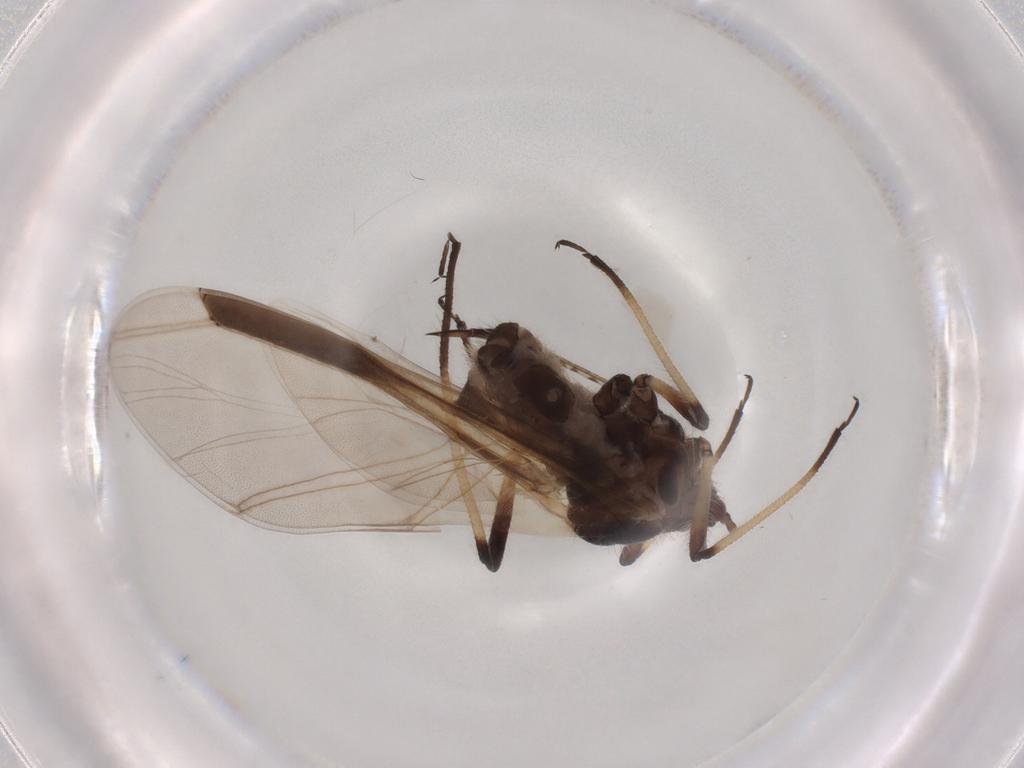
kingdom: Animalia
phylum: Arthropoda
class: Insecta
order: Hemiptera
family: Aphididae
